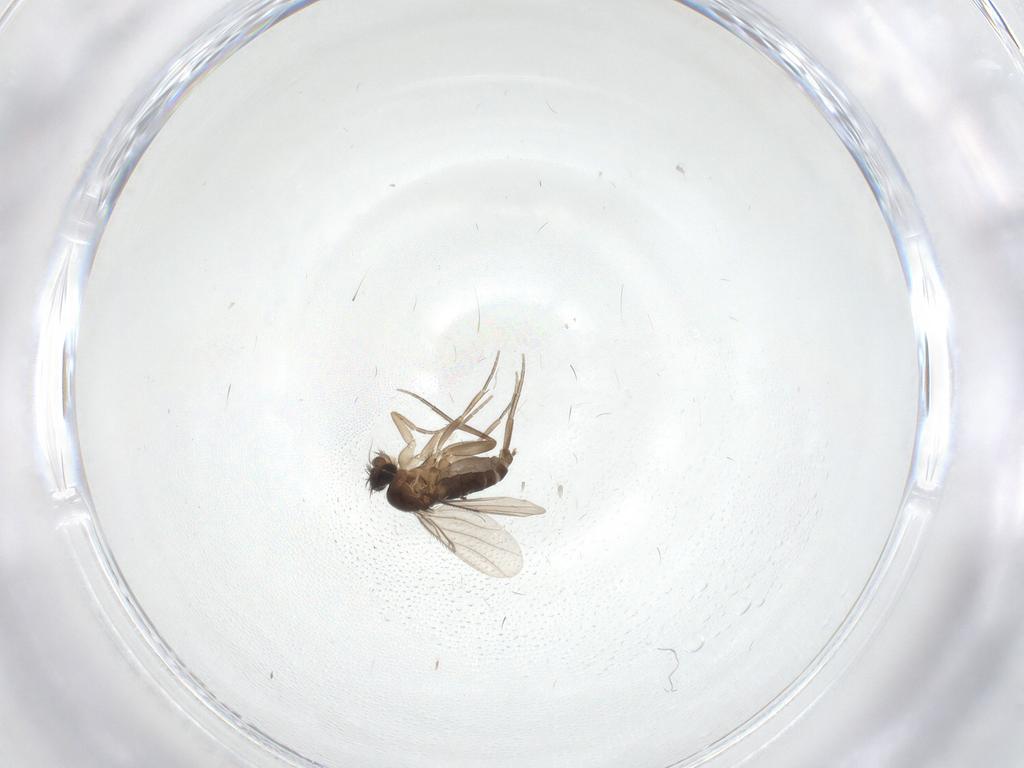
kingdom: Animalia
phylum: Arthropoda
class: Insecta
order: Diptera
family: Phoridae
